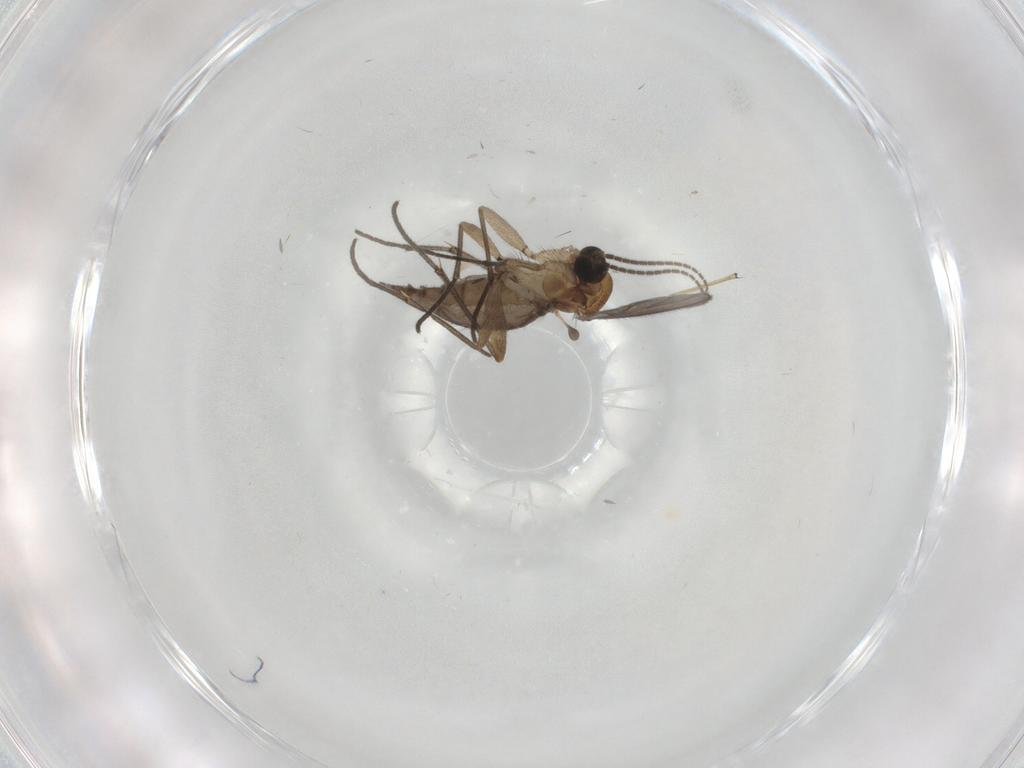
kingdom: Animalia
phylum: Arthropoda
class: Insecta
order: Diptera
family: Sciaridae
